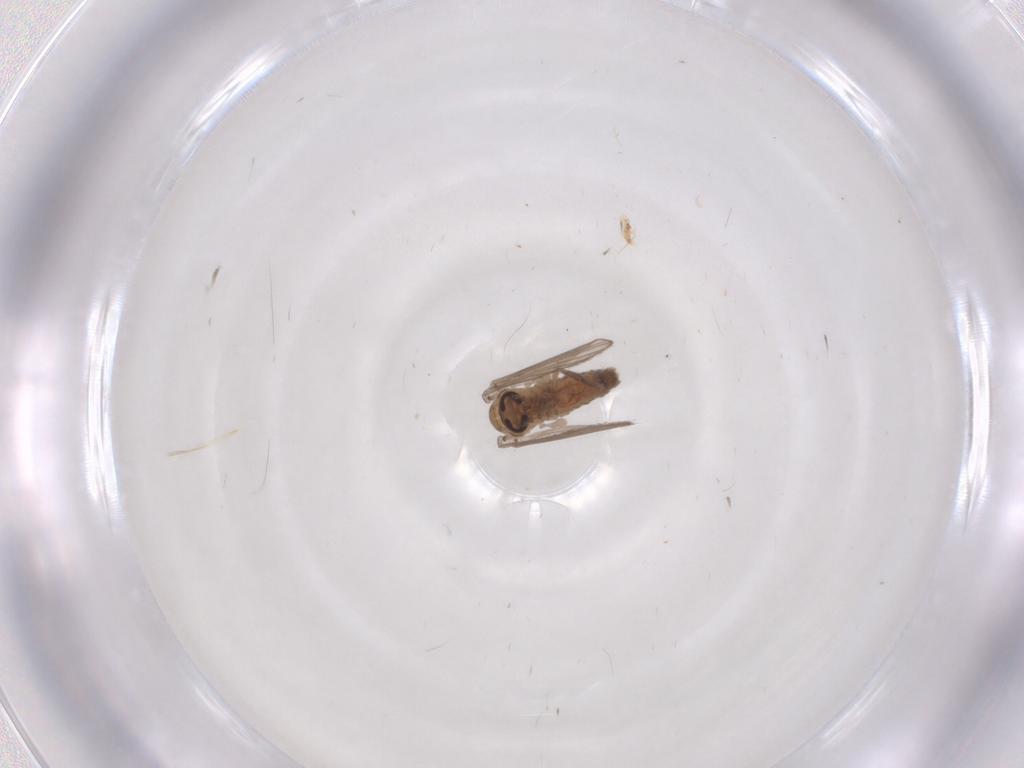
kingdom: Animalia
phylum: Arthropoda
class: Insecta
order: Diptera
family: Psychodidae
